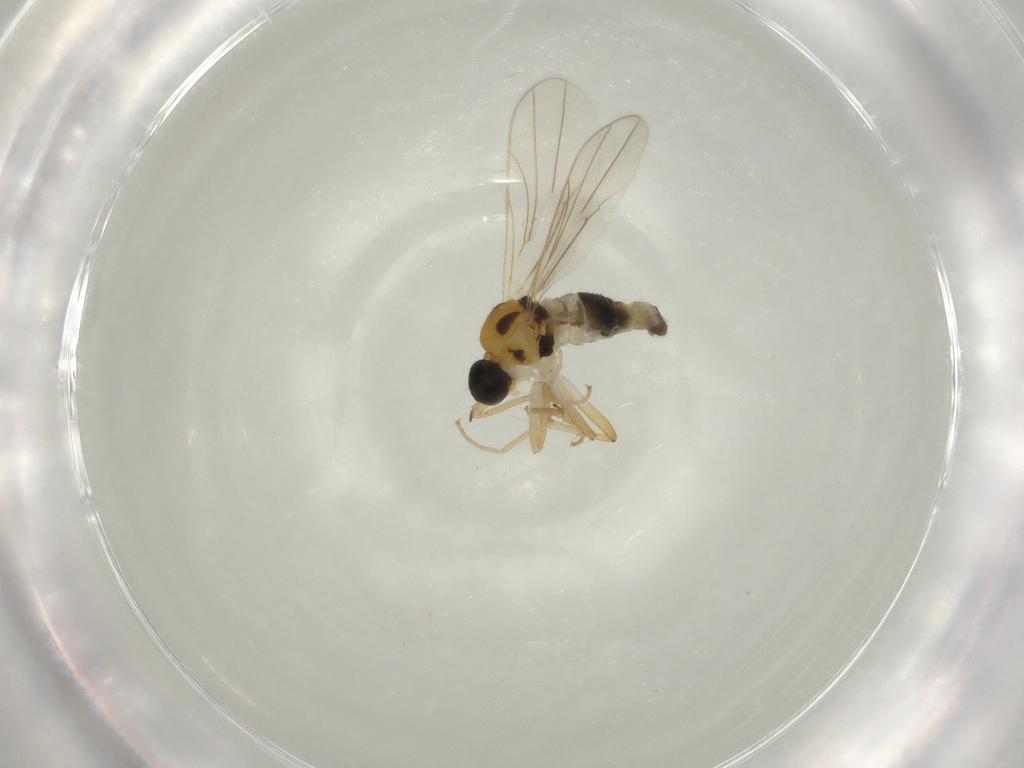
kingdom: Animalia
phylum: Arthropoda
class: Insecta
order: Diptera
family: Hybotidae
